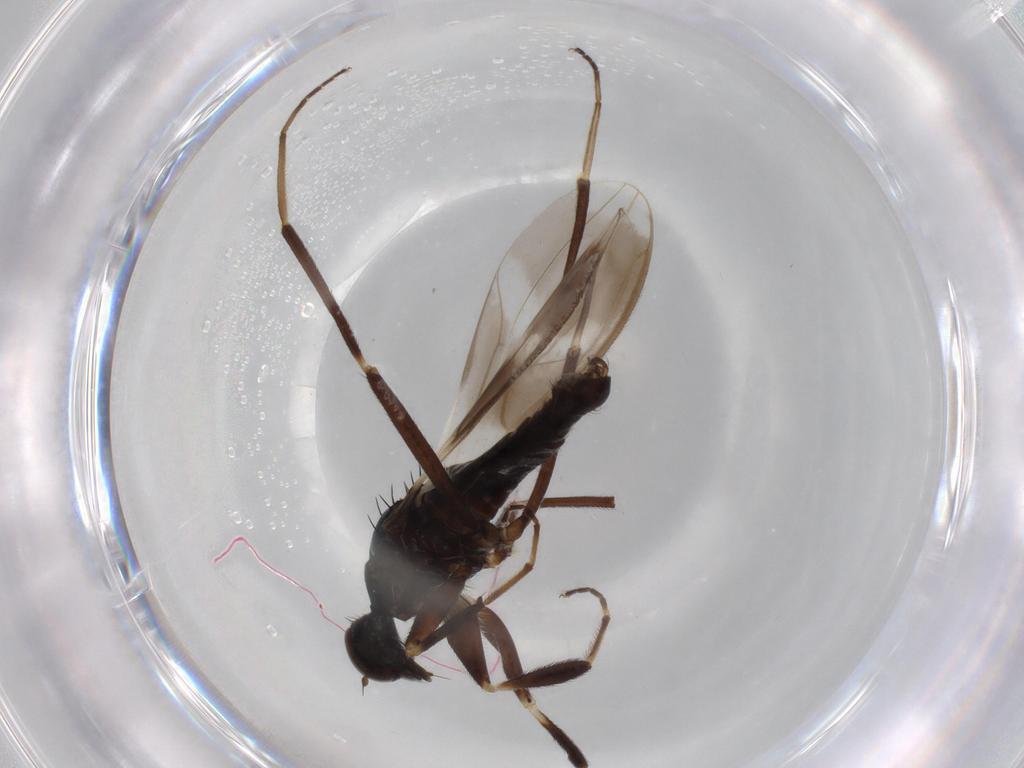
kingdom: Animalia
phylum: Arthropoda
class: Insecta
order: Diptera
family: Hybotidae
